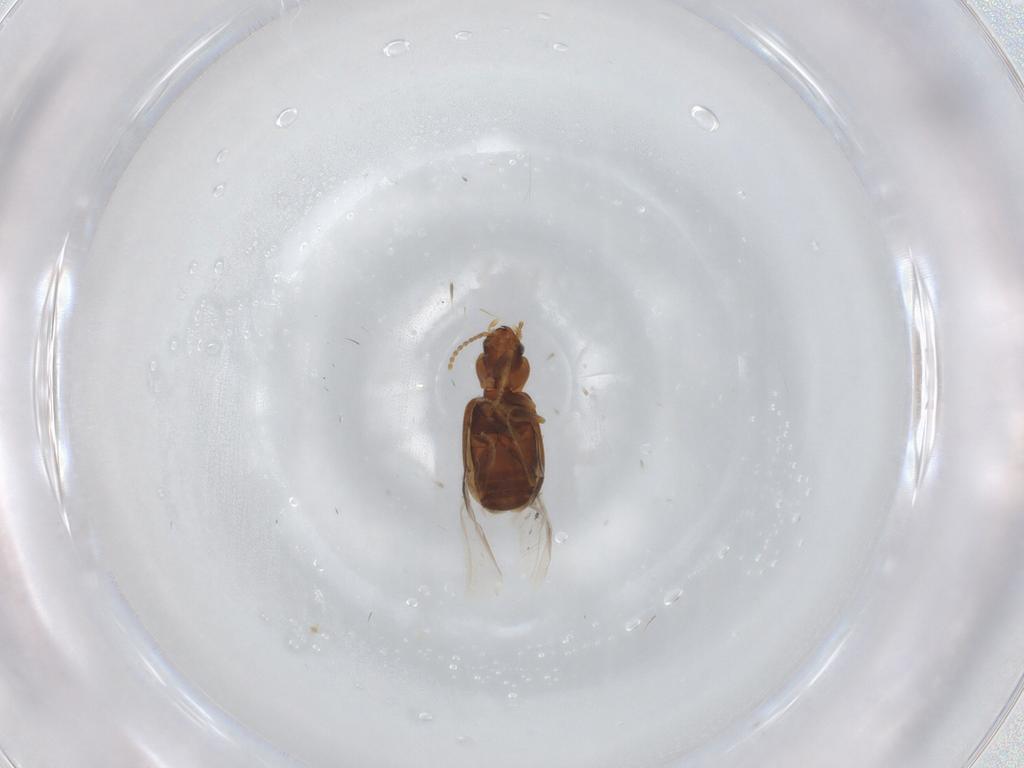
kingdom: Animalia
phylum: Arthropoda
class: Insecta
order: Coleoptera
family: Carabidae
